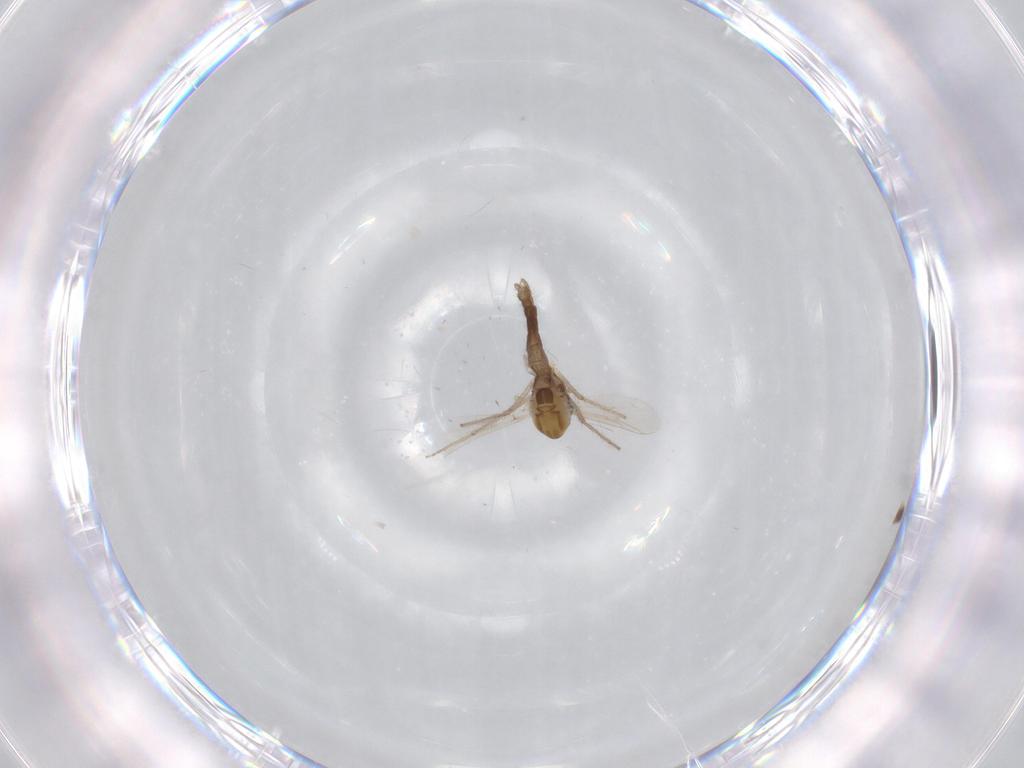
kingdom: Animalia
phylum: Arthropoda
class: Insecta
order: Diptera
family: Chironomidae
